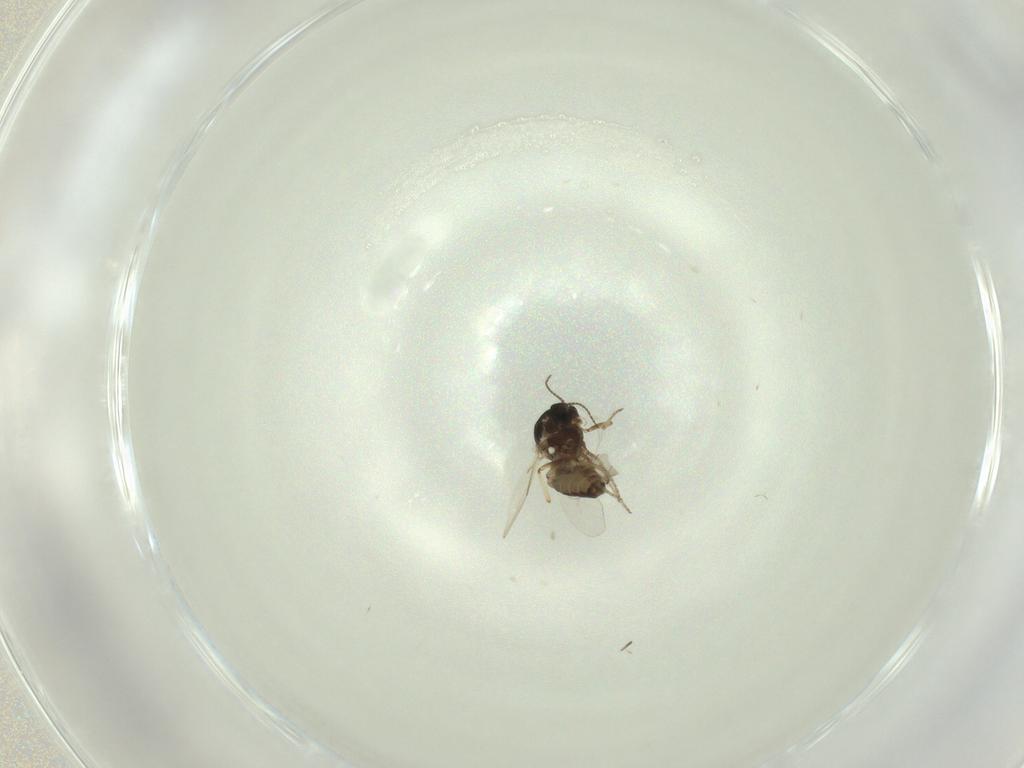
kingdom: Animalia
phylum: Arthropoda
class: Insecta
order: Diptera
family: Ceratopogonidae
